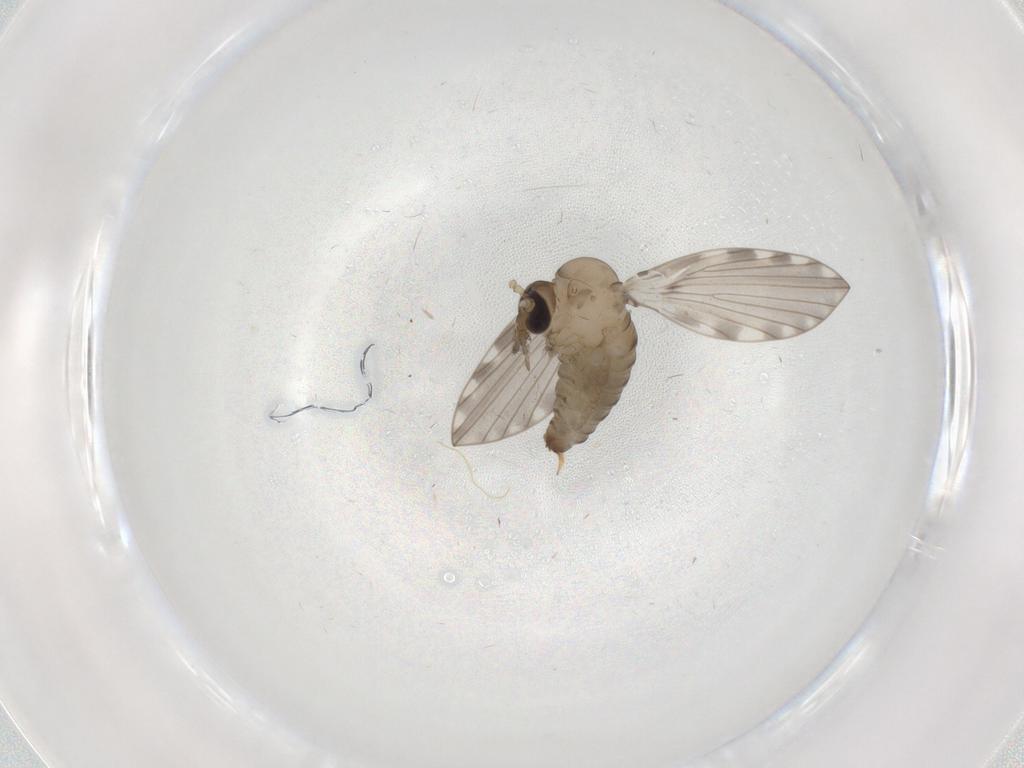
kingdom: Animalia
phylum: Arthropoda
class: Insecta
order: Diptera
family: Psychodidae
